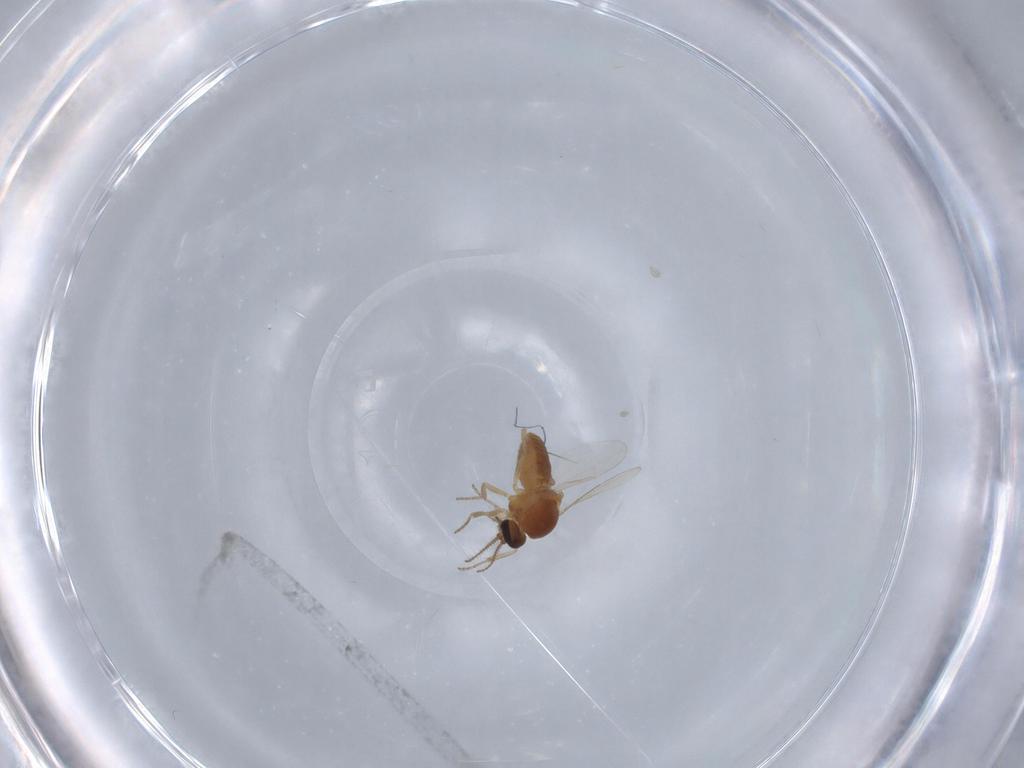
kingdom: Animalia
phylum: Arthropoda
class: Insecta
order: Diptera
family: Ceratopogonidae
